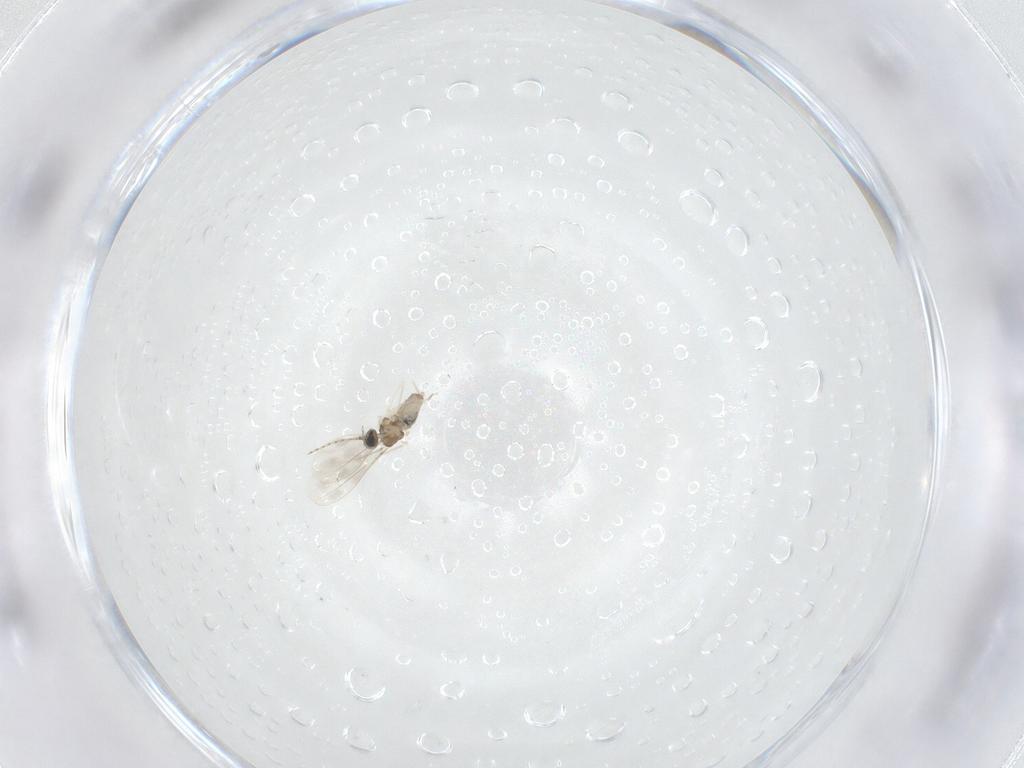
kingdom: Animalia
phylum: Arthropoda
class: Insecta
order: Diptera
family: Cecidomyiidae
